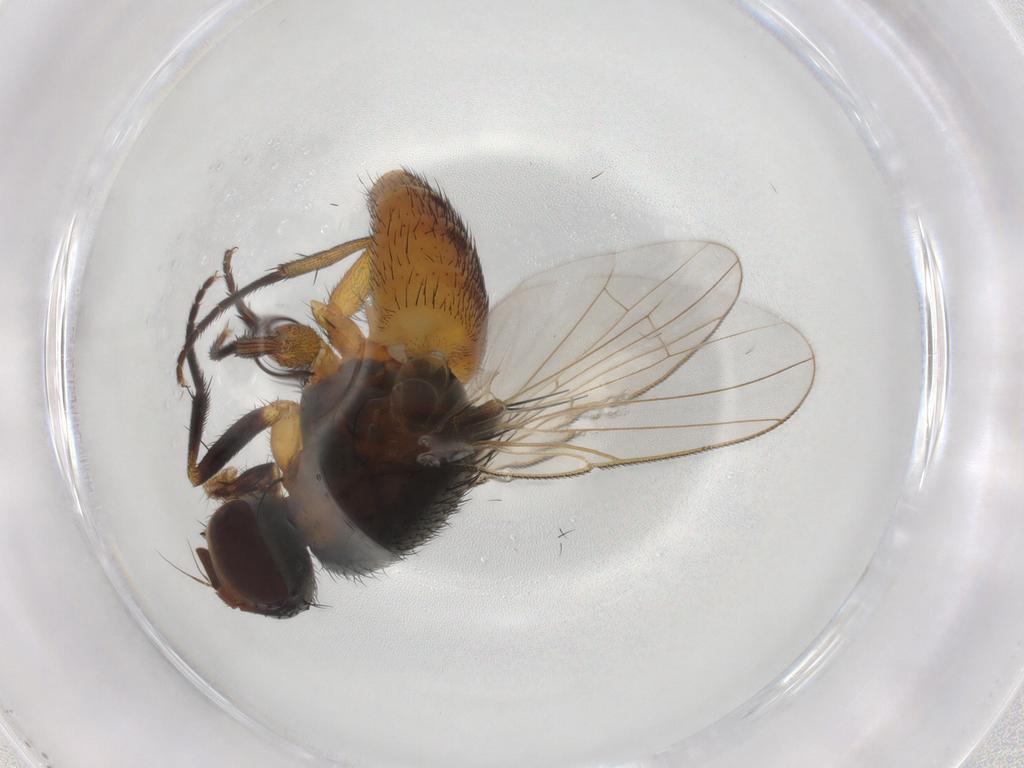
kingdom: Animalia
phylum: Arthropoda
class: Insecta
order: Diptera
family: Muscidae
